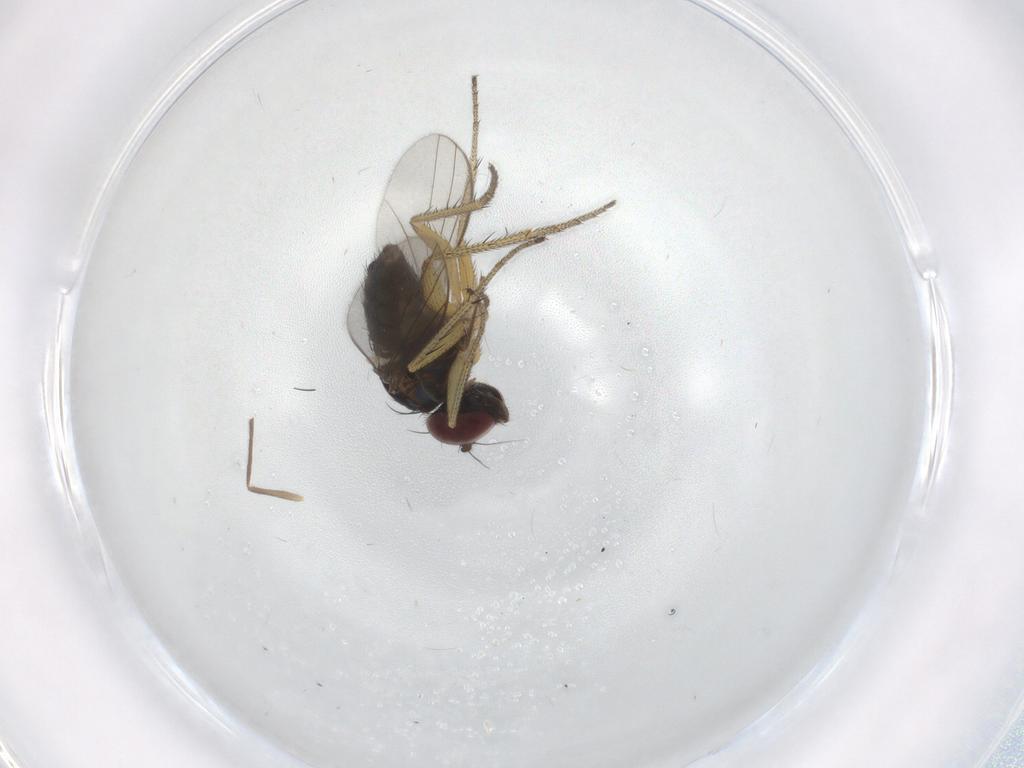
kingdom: Animalia
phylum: Arthropoda
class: Insecta
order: Diptera
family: Chironomidae
